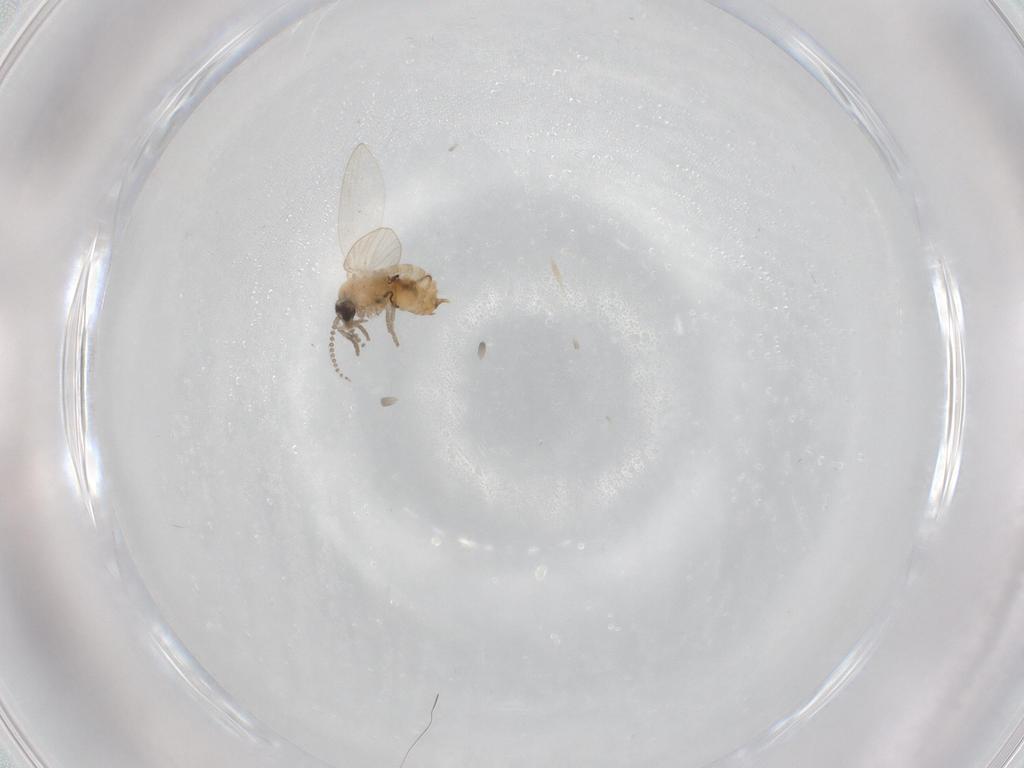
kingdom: Animalia
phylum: Arthropoda
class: Insecta
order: Diptera
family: Psychodidae
